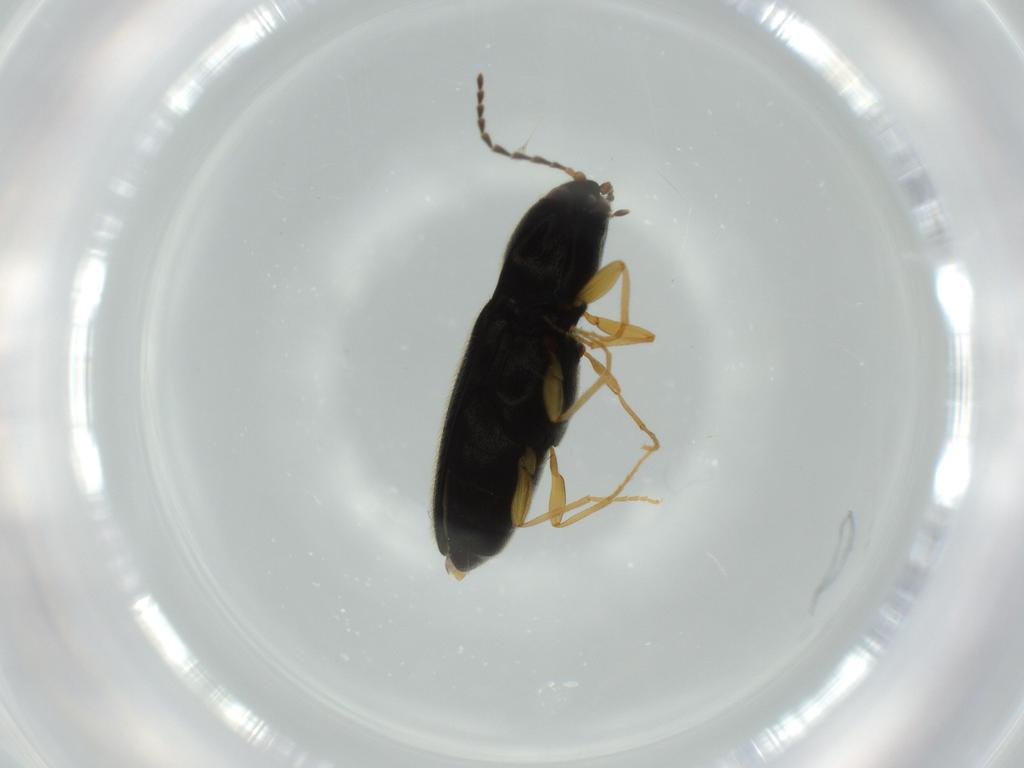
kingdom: Animalia
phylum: Arthropoda
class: Insecta
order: Coleoptera
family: Elateridae
